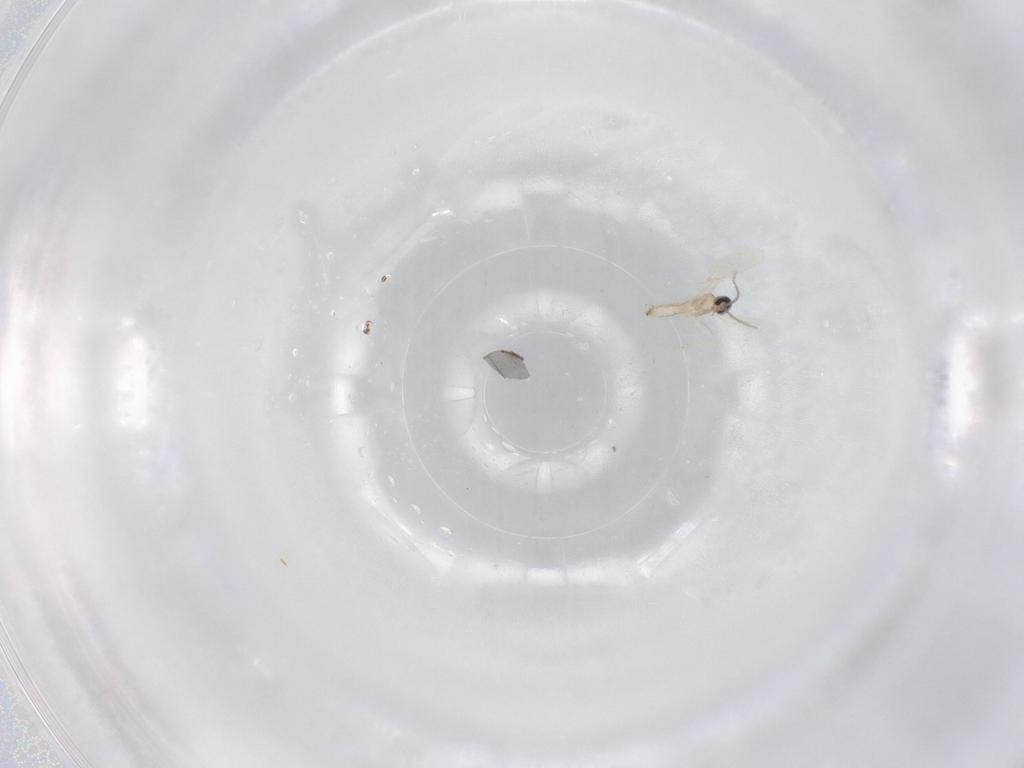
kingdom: Animalia
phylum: Arthropoda
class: Insecta
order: Diptera
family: Cecidomyiidae
